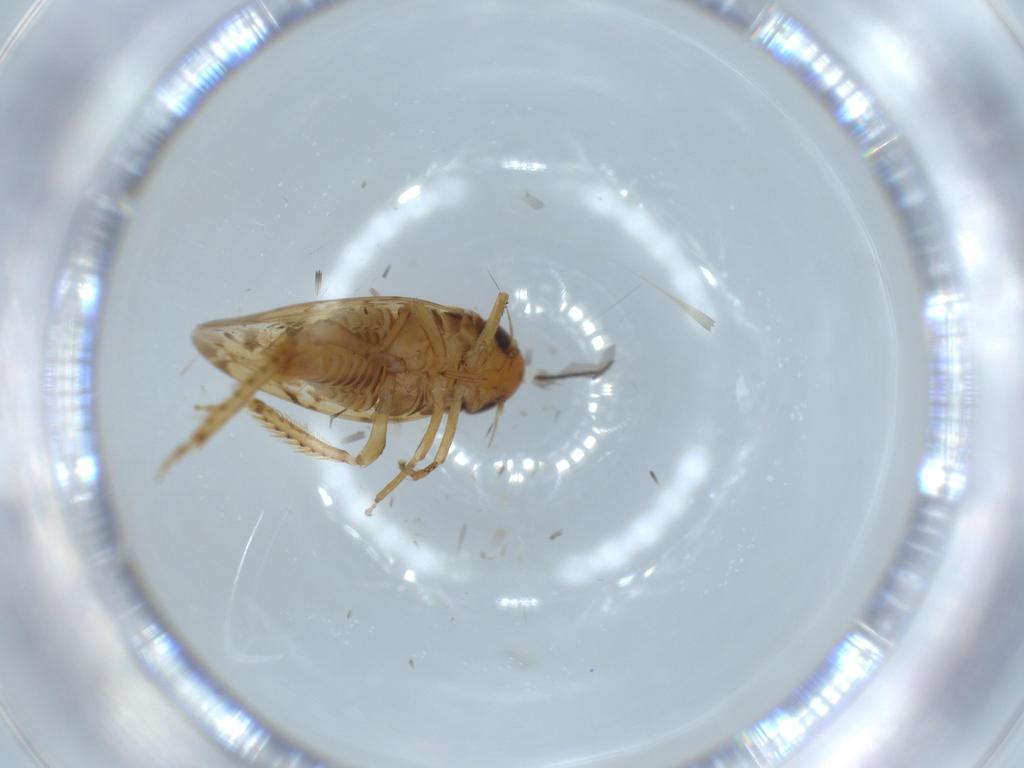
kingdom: Animalia
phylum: Arthropoda
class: Insecta
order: Hemiptera
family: Cicadellidae
